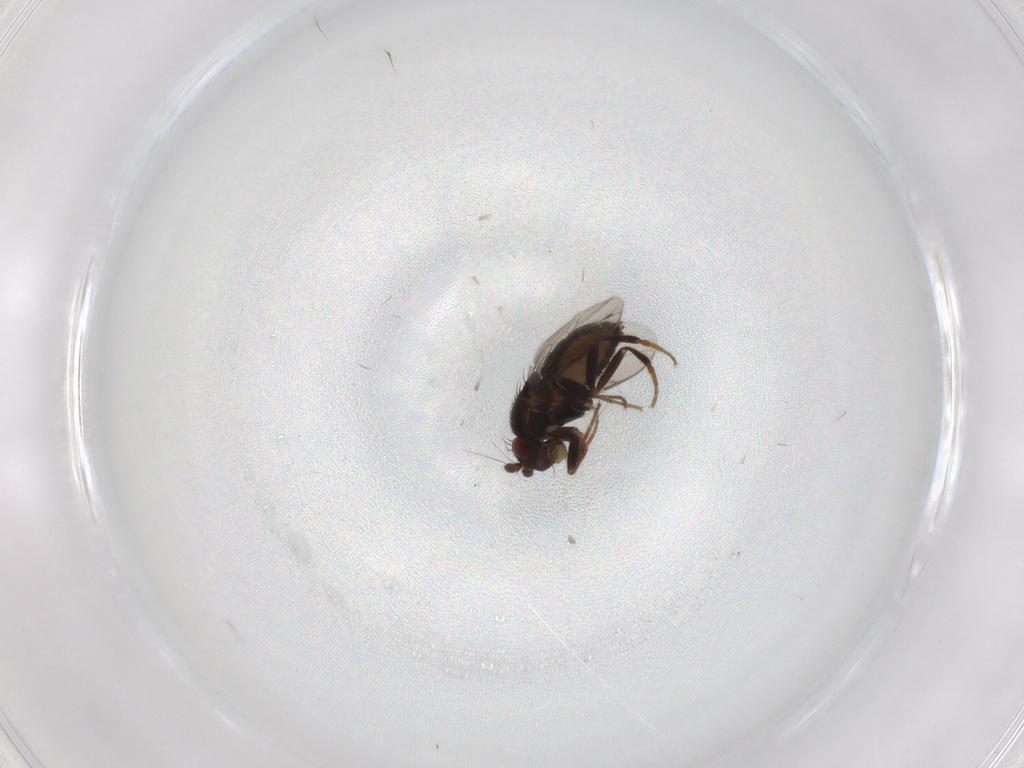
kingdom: Animalia
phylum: Arthropoda
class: Insecta
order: Diptera
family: Sphaeroceridae
